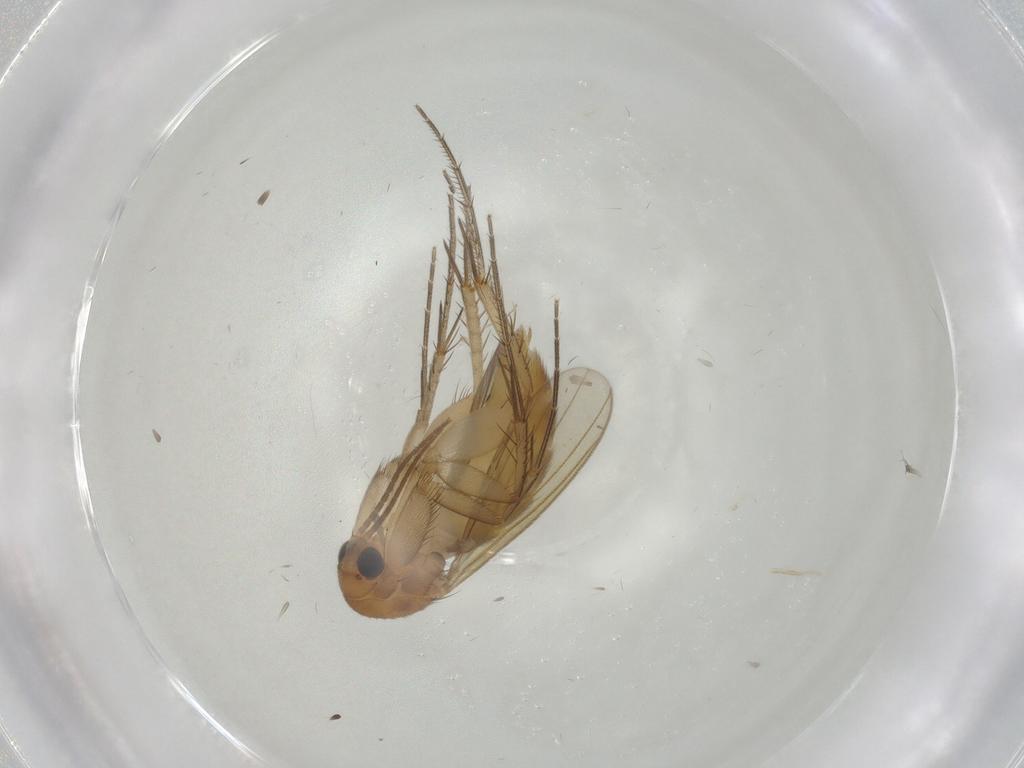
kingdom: Animalia
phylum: Arthropoda
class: Insecta
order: Diptera
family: Mycetophilidae
